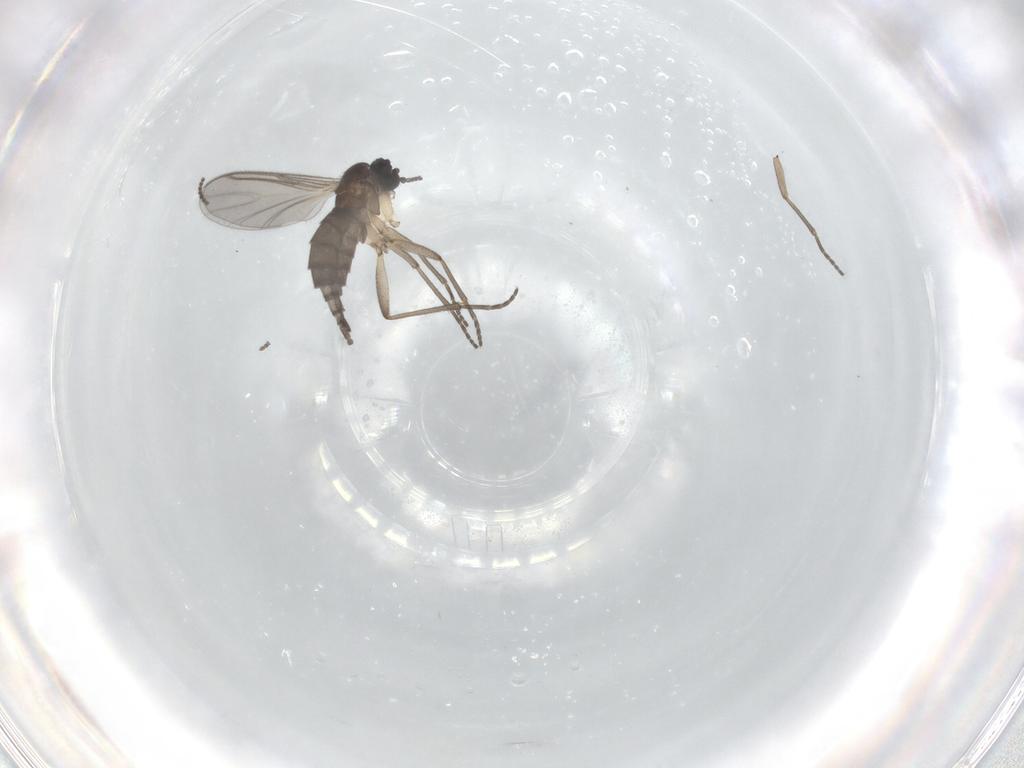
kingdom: Animalia
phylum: Arthropoda
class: Insecta
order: Diptera
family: Sciaridae
